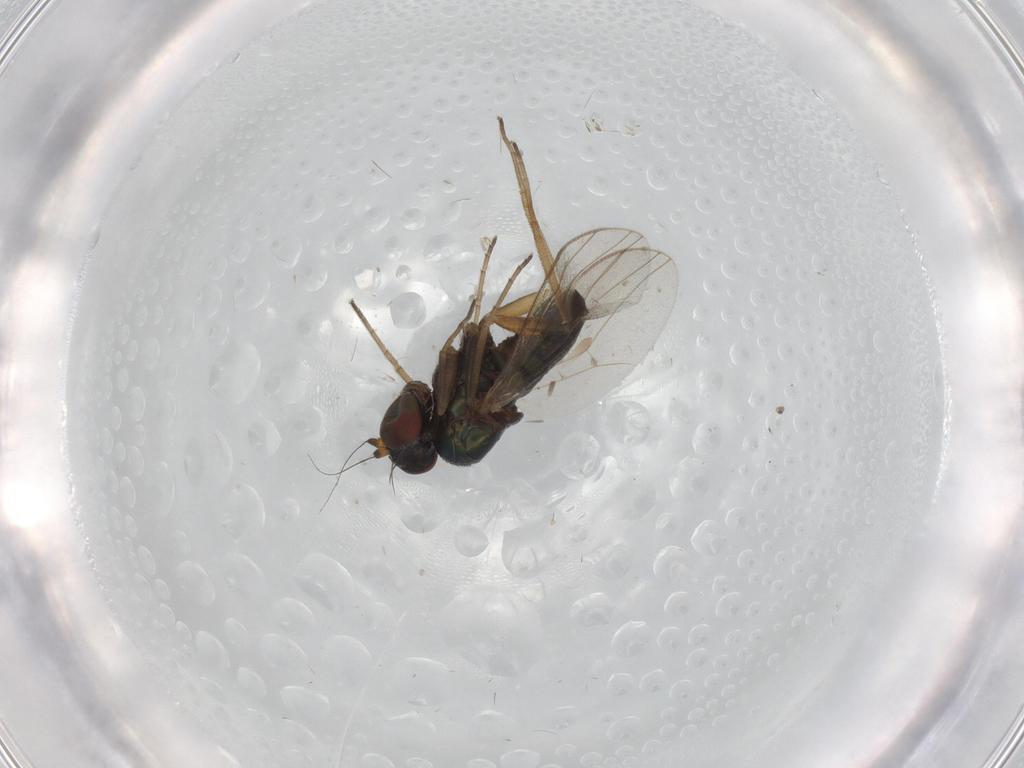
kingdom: Animalia
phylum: Arthropoda
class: Insecta
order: Diptera
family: Dolichopodidae
